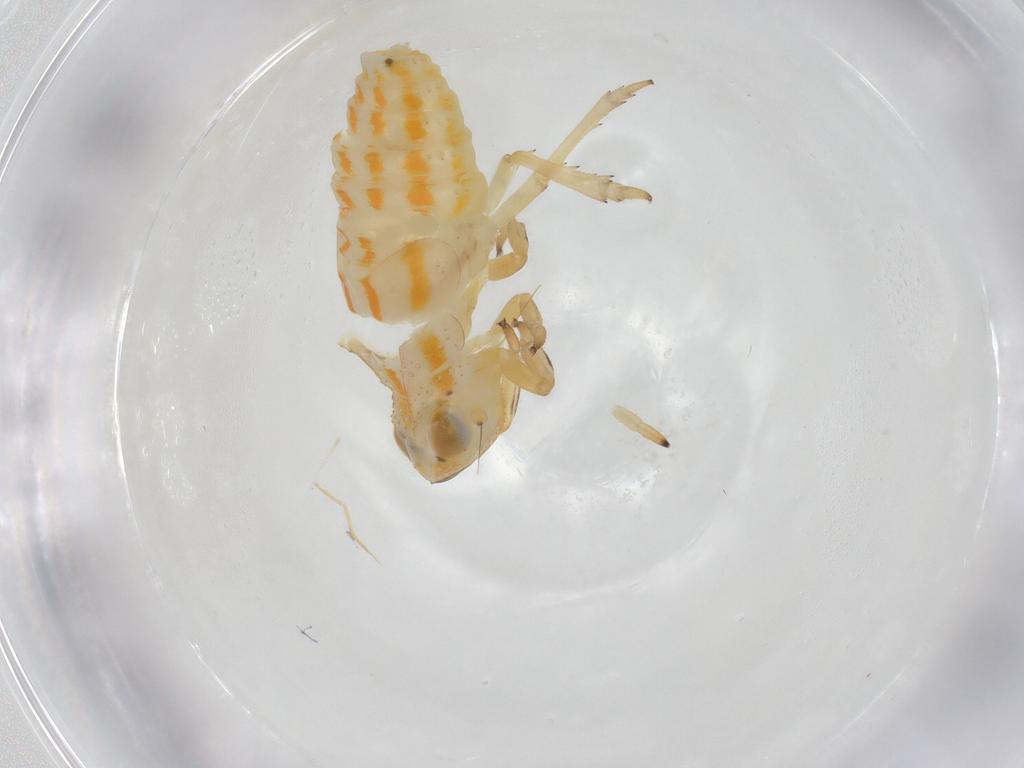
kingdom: Animalia
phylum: Arthropoda
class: Insecta
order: Hemiptera
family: Issidae
